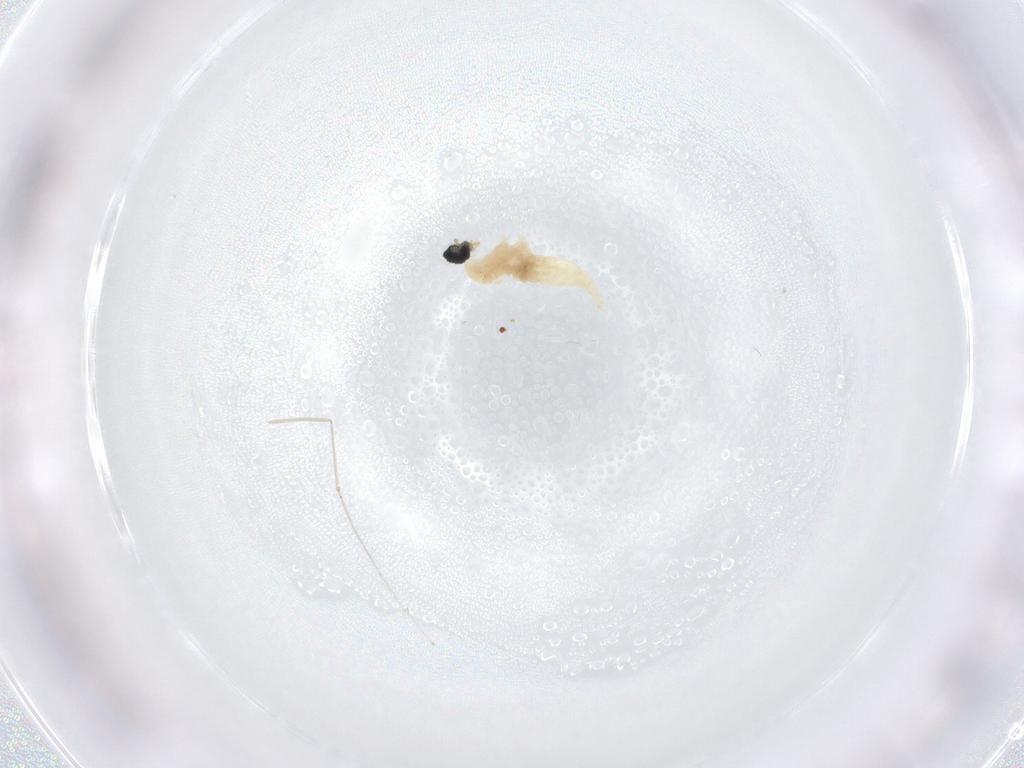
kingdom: Animalia
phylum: Arthropoda
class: Insecta
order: Diptera
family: Cecidomyiidae
